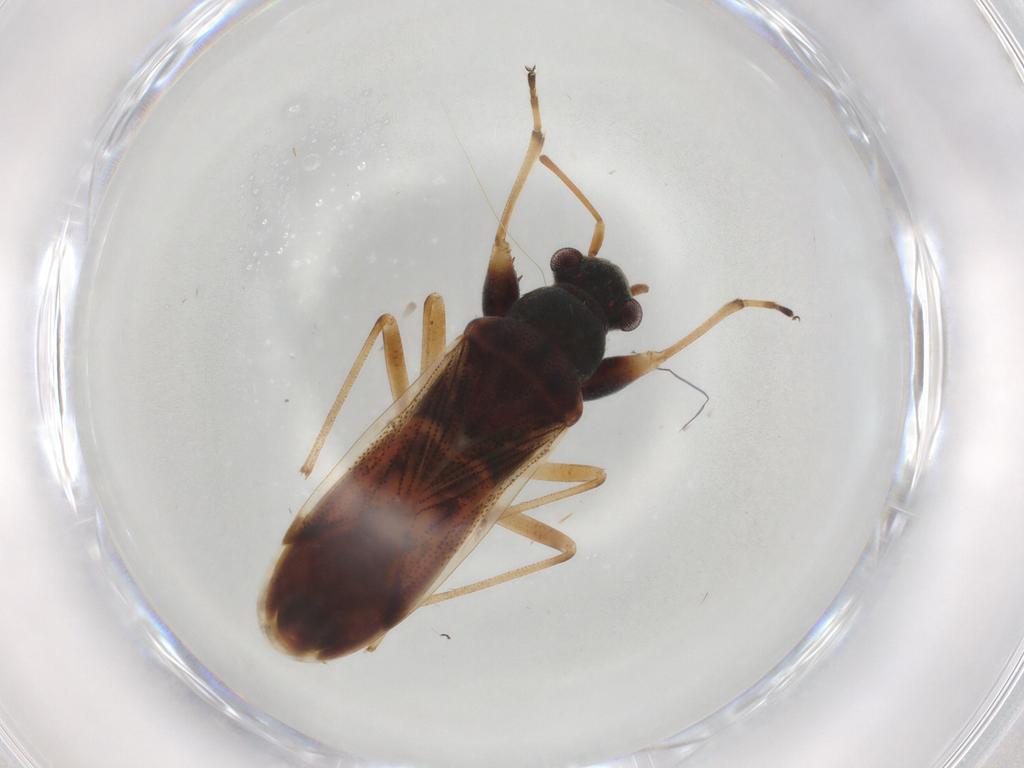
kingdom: Animalia
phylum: Arthropoda
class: Insecta
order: Hemiptera
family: Rhyparochromidae
